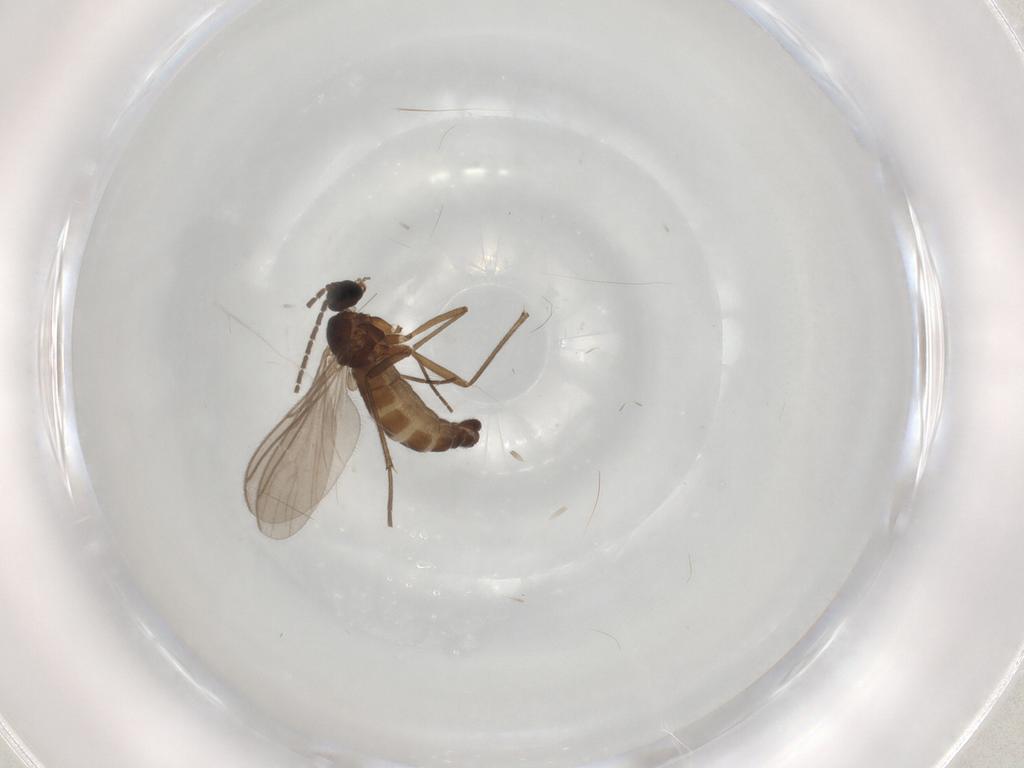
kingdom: Animalia
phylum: Arthropoda
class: Insecta
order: Diptera
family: Sciaridae
